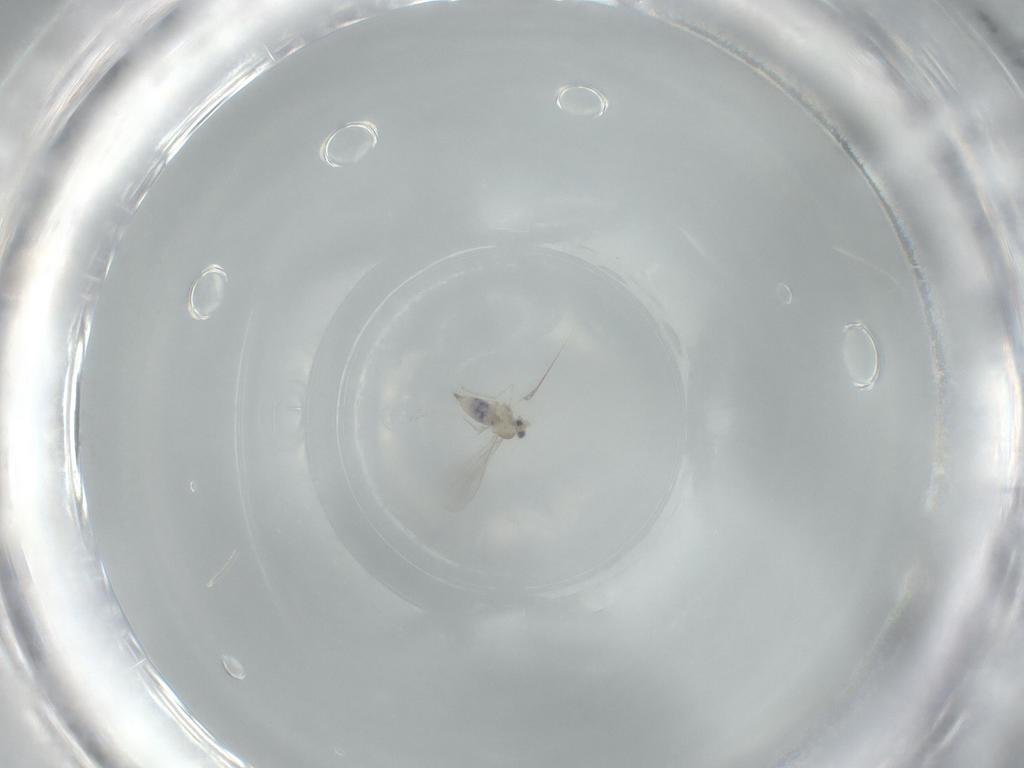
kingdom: Animalia
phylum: Arthropoda
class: Insecta
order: Diptera
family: Cecidomyiidae
